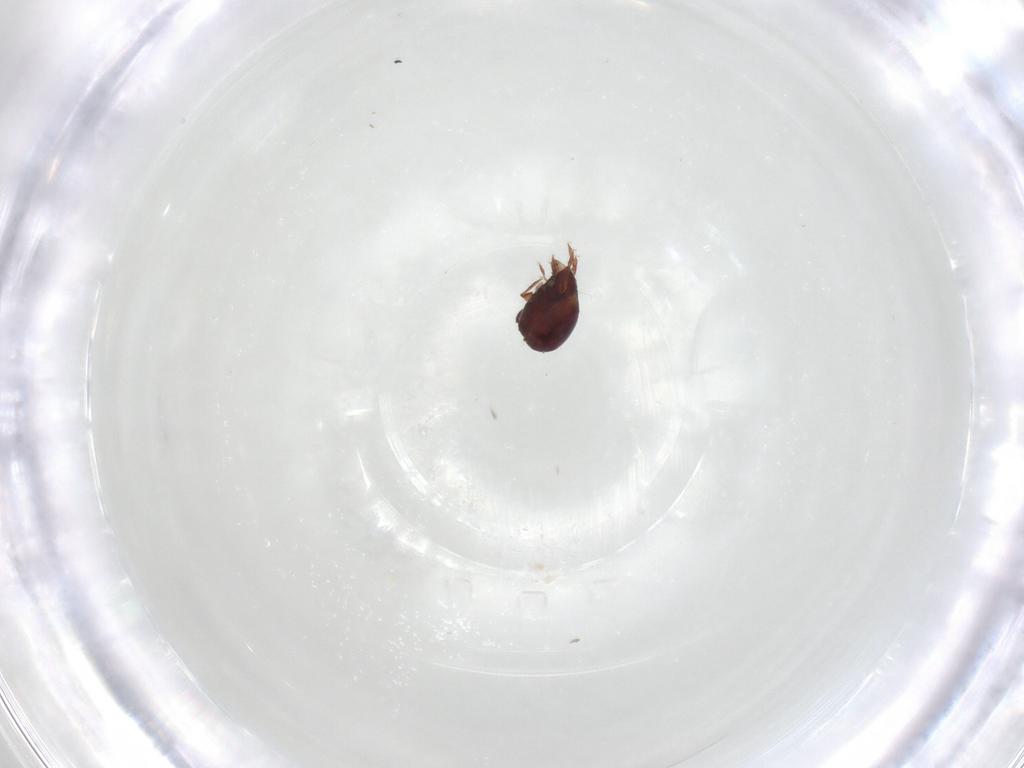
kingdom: Animalia
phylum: Arthropoda
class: Arachnida
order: Sarcoptiformes
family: Humerobatidae
